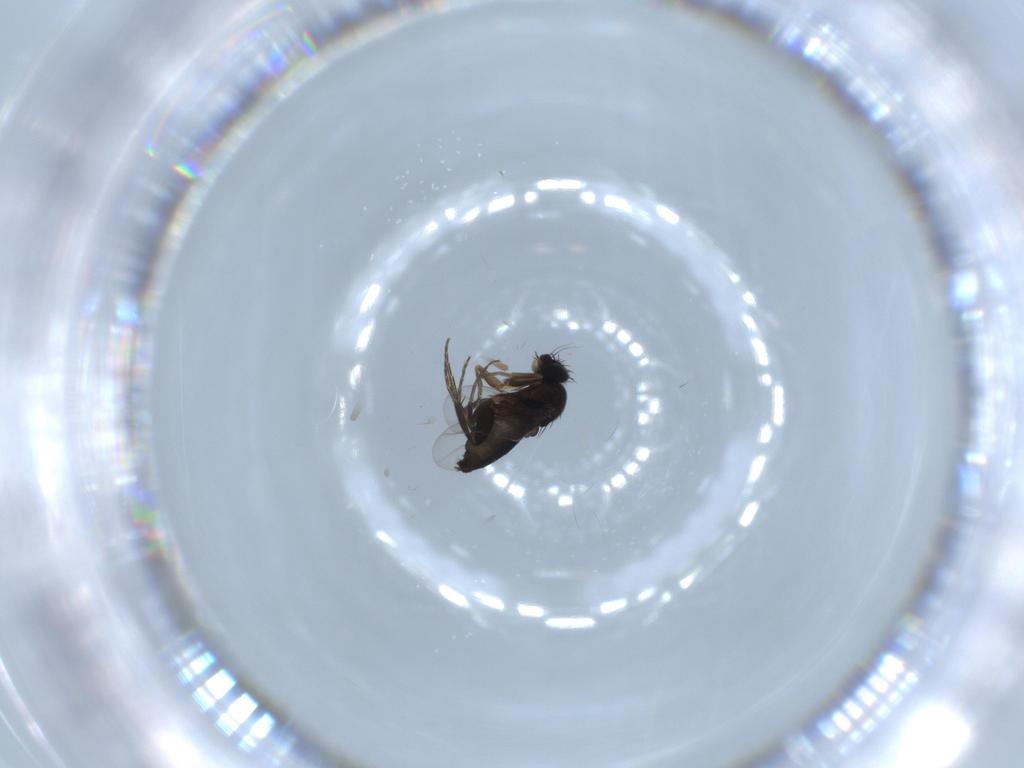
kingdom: Animalia
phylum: Arthropoda
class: Insecta
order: Diptera
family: Phoridae
